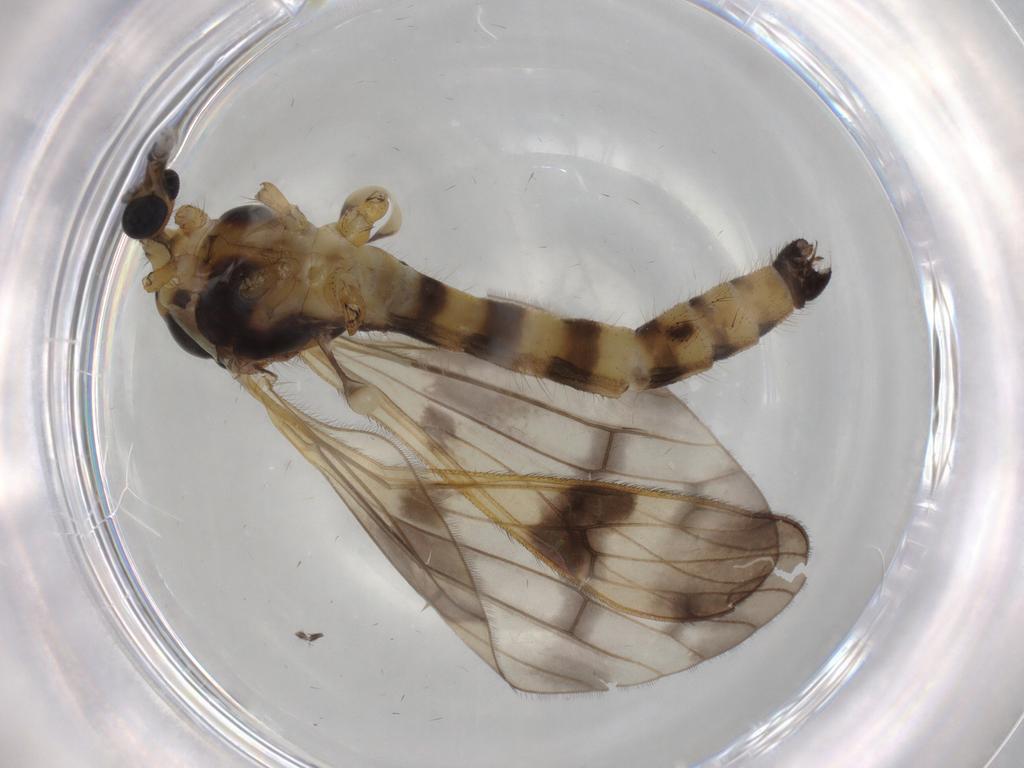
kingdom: Animalia
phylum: Arthropoda
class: Insecta
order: Diptera
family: Limoniidae
